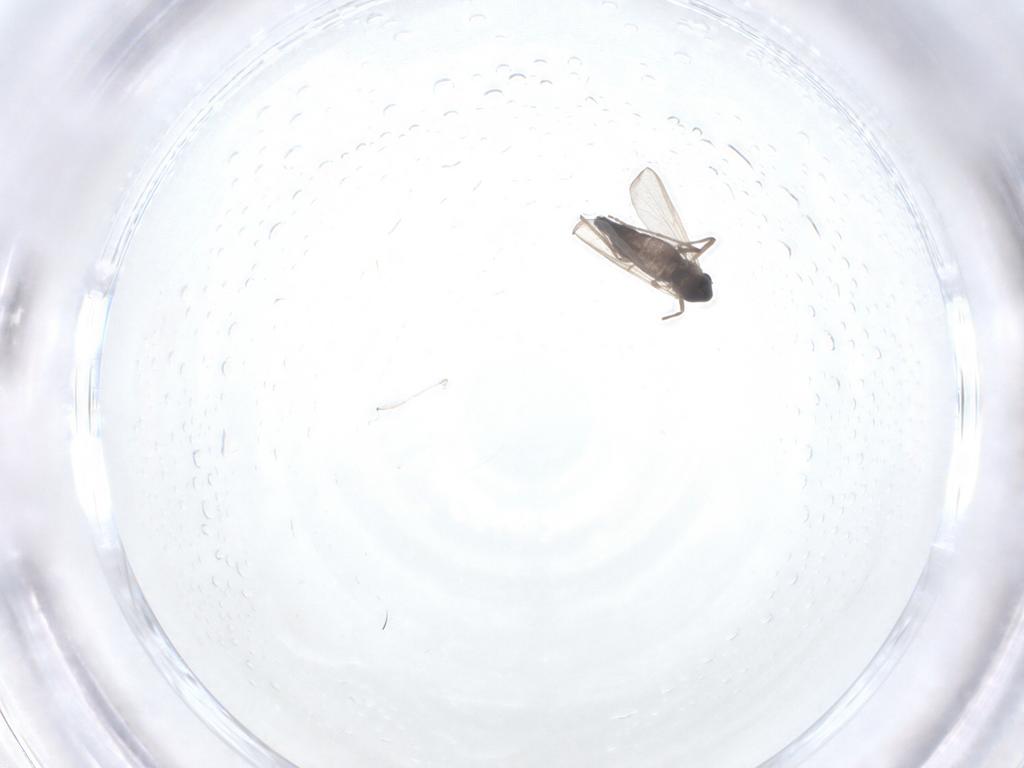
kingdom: Animalia
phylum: Arthropoda
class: Insecta
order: Diptera
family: Chironomidae
